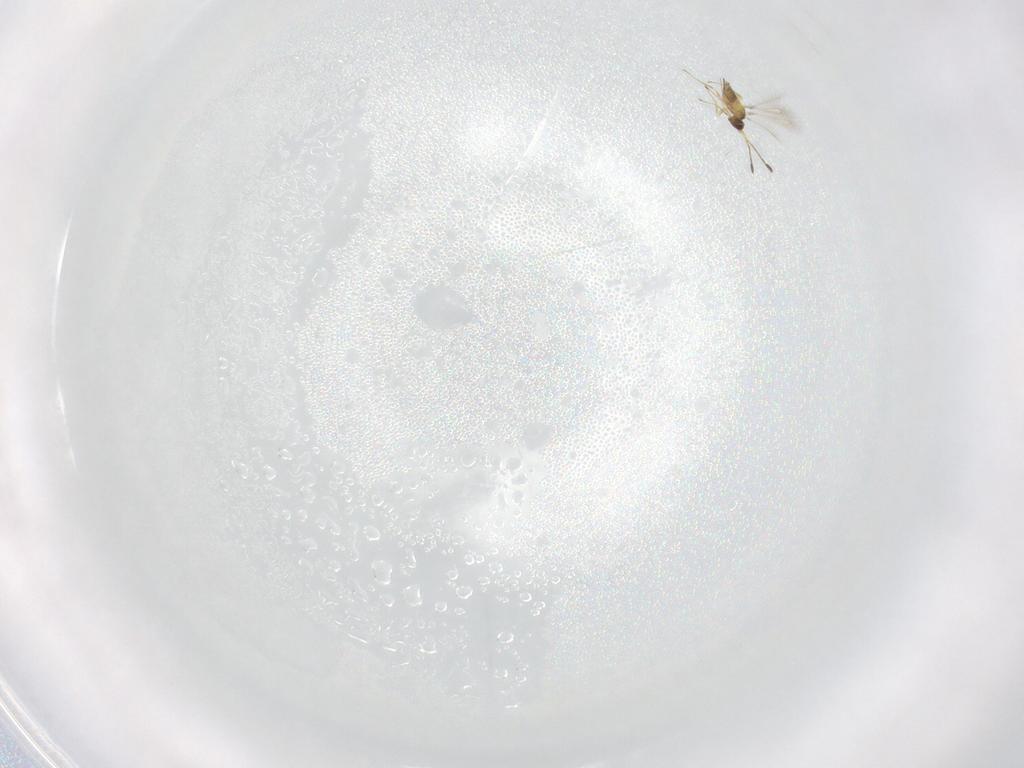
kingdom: Animalia
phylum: Arthropoda
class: Insecta
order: Hymenoptera
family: Formicidae
